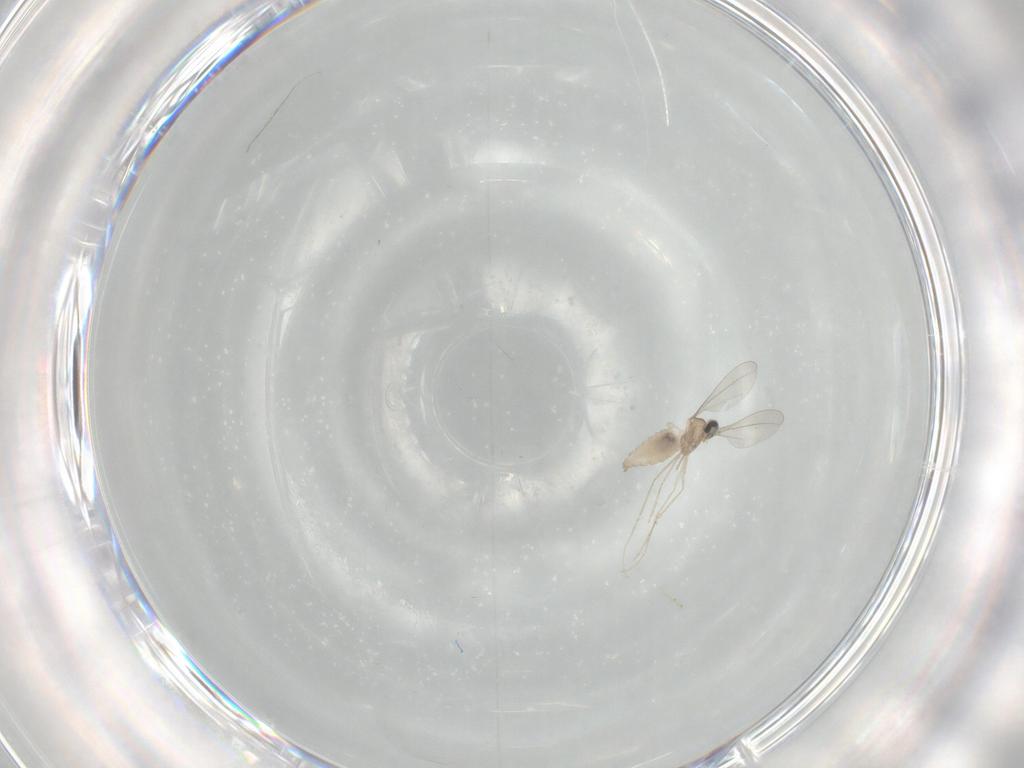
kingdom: Animalia
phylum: Arthropoda
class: Insecta
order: Diptera
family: Cecidomyiidae
